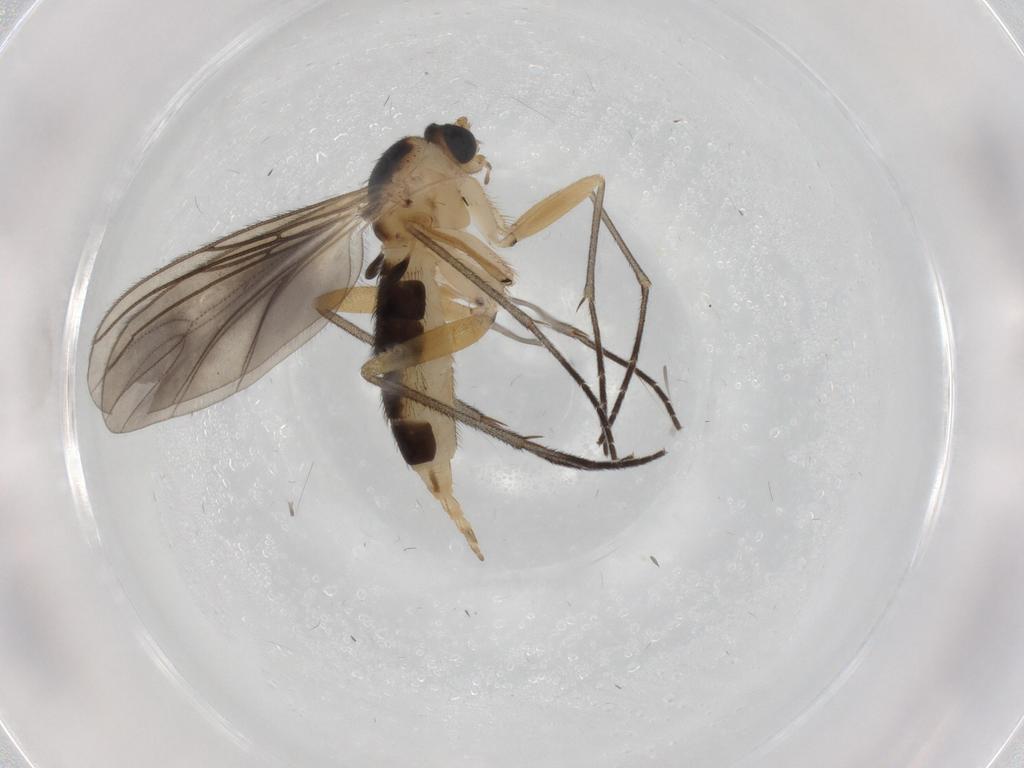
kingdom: Animalia
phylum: Arthropoda
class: Insecta
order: Diptera
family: Sciaridae
